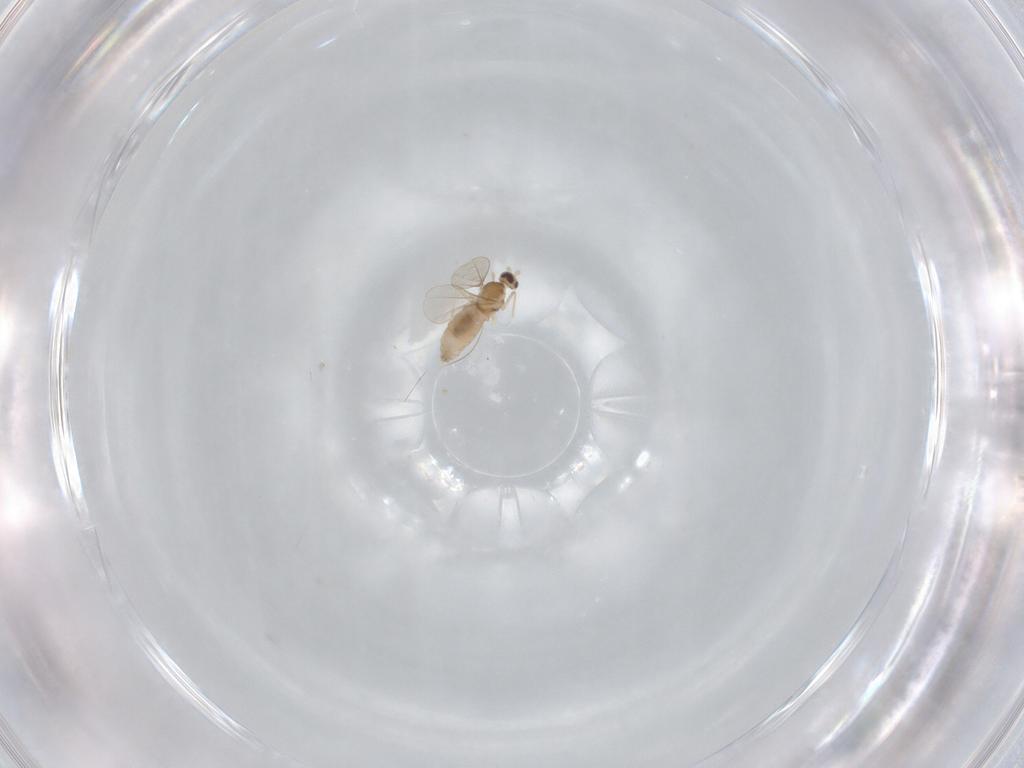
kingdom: Animalia
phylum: Arthropoda
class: Insecta
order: Diptera
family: Cecidomyiidae
